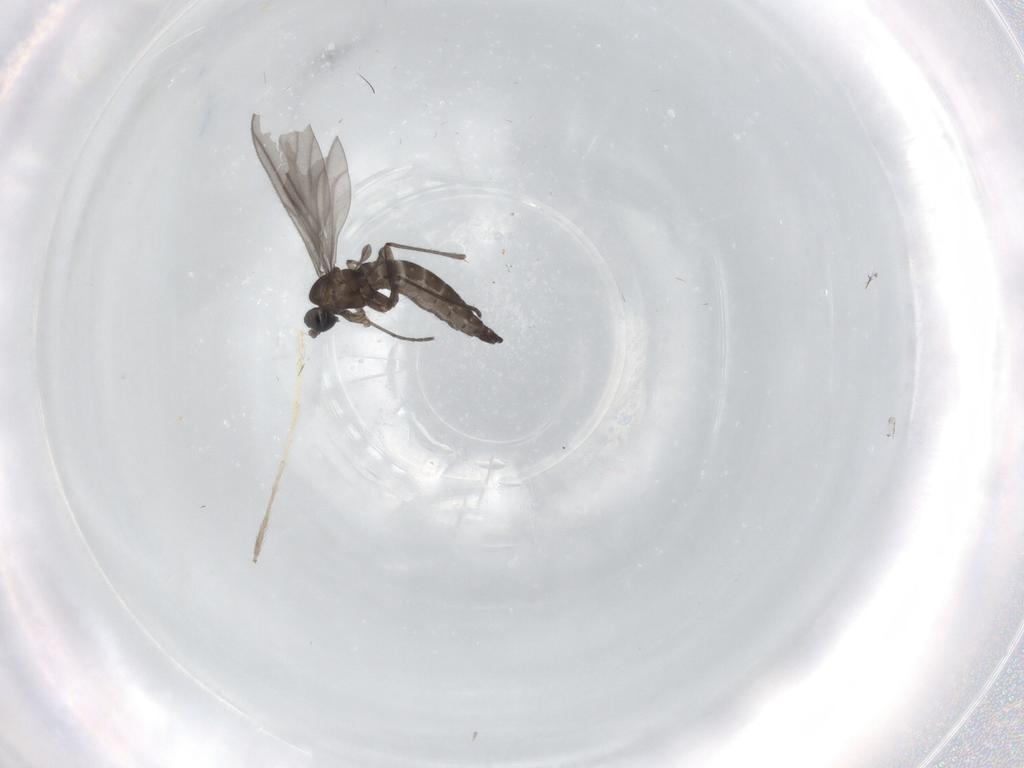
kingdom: Animalia
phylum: Arthropoda
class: Insecta
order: Diptera
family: Sciaridae
